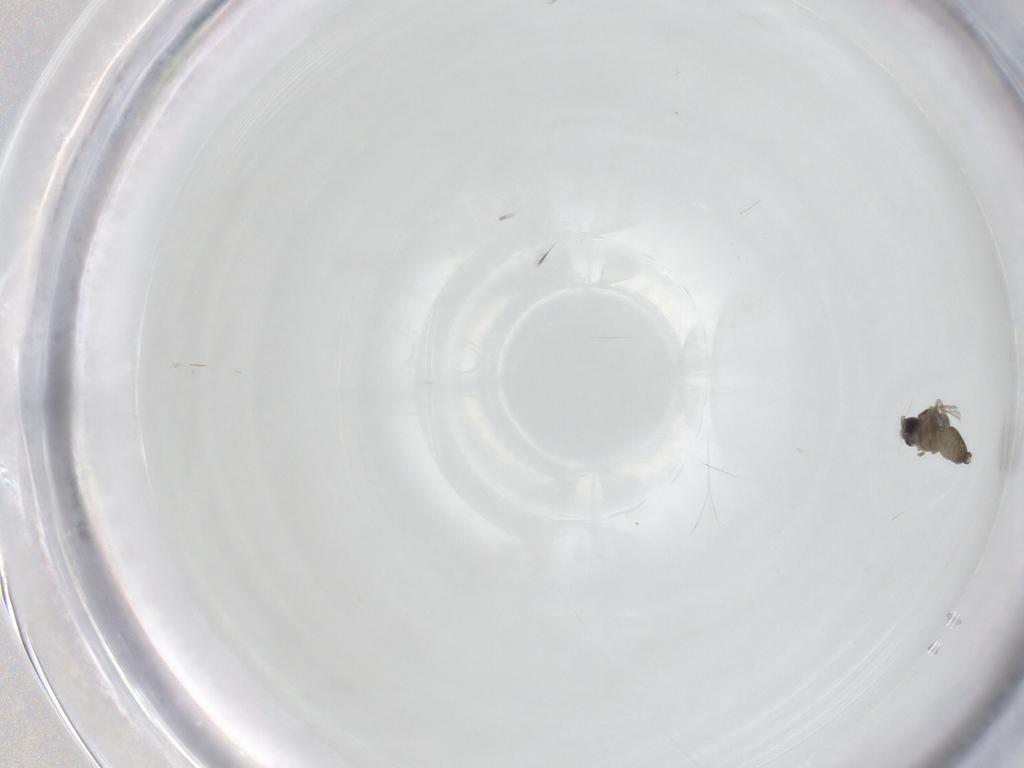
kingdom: Animalia
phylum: Arthropoda
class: Insecta
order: Diptera
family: Cecidomyiidae
